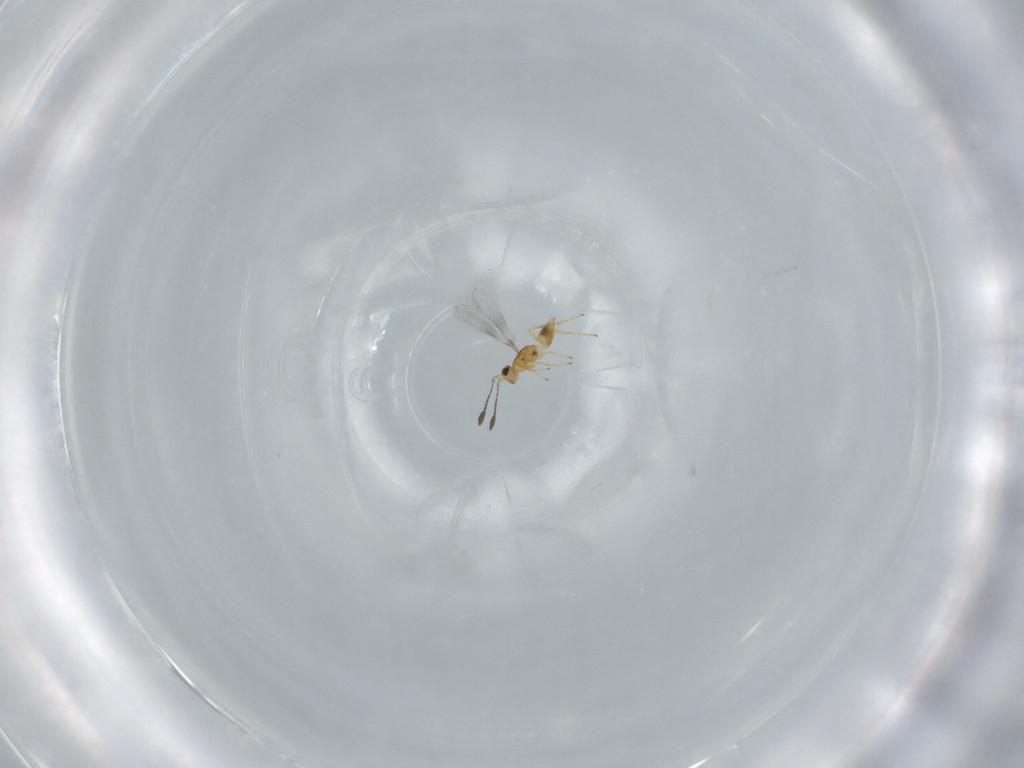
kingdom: Animalia
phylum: Arthropoda
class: Insecta
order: Hymenoptera
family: Mymaridae
